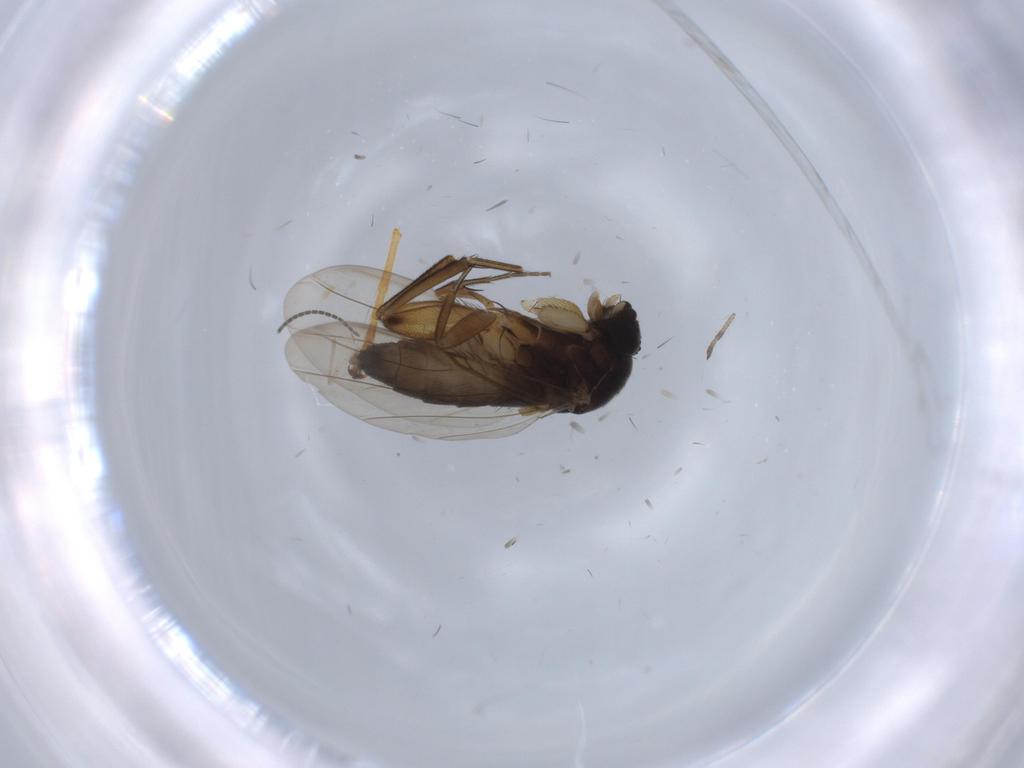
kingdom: Animalia
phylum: Arthropoda
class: Insecta
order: Diptera
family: Phoridae
